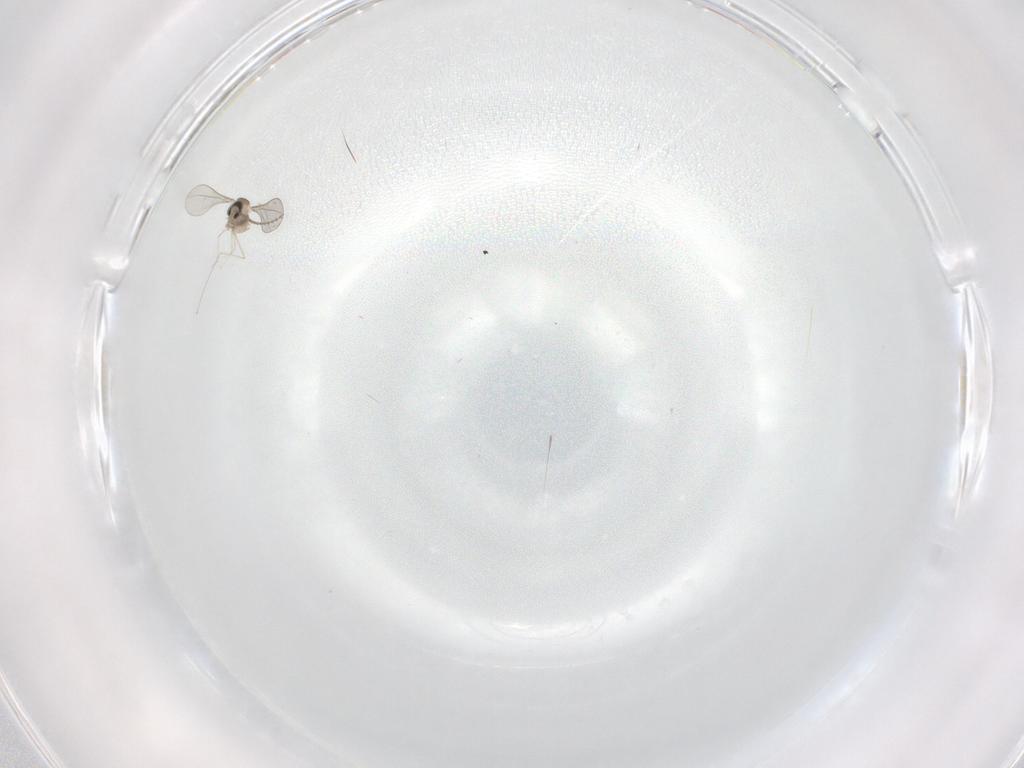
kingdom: Animalia
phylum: Arthropoda
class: Insecta
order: Diptera
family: Cecidomyiidae
